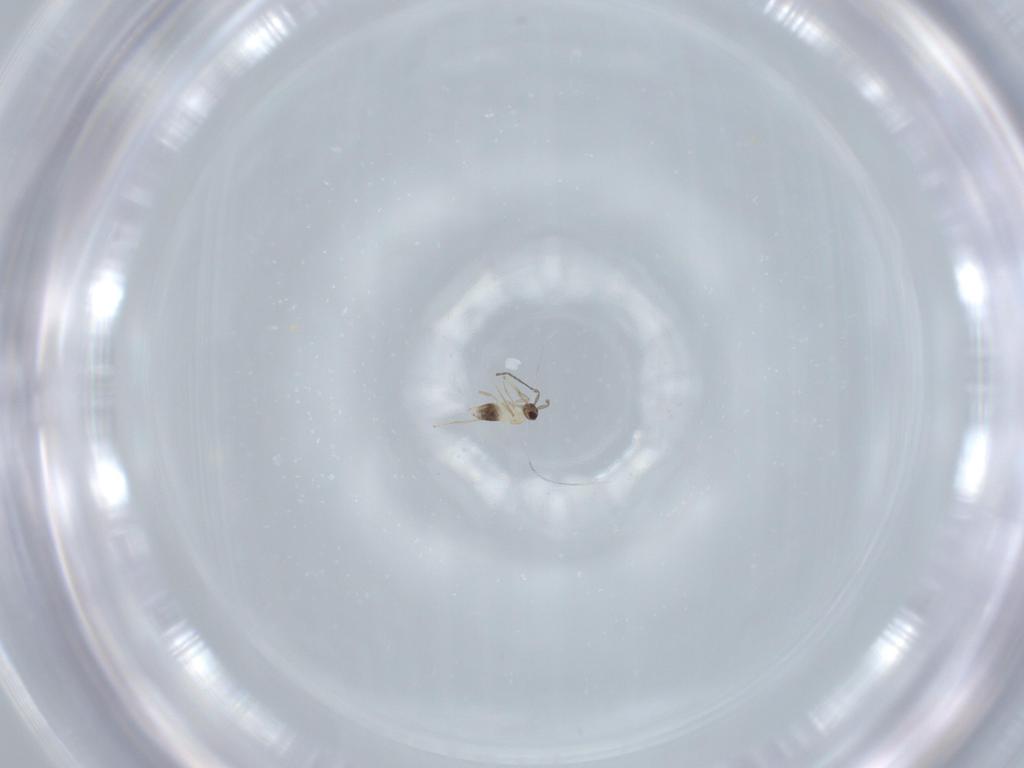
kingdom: Animalia
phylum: Arthropoda
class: Insecta
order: Hymenoptera
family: Mymaridae
